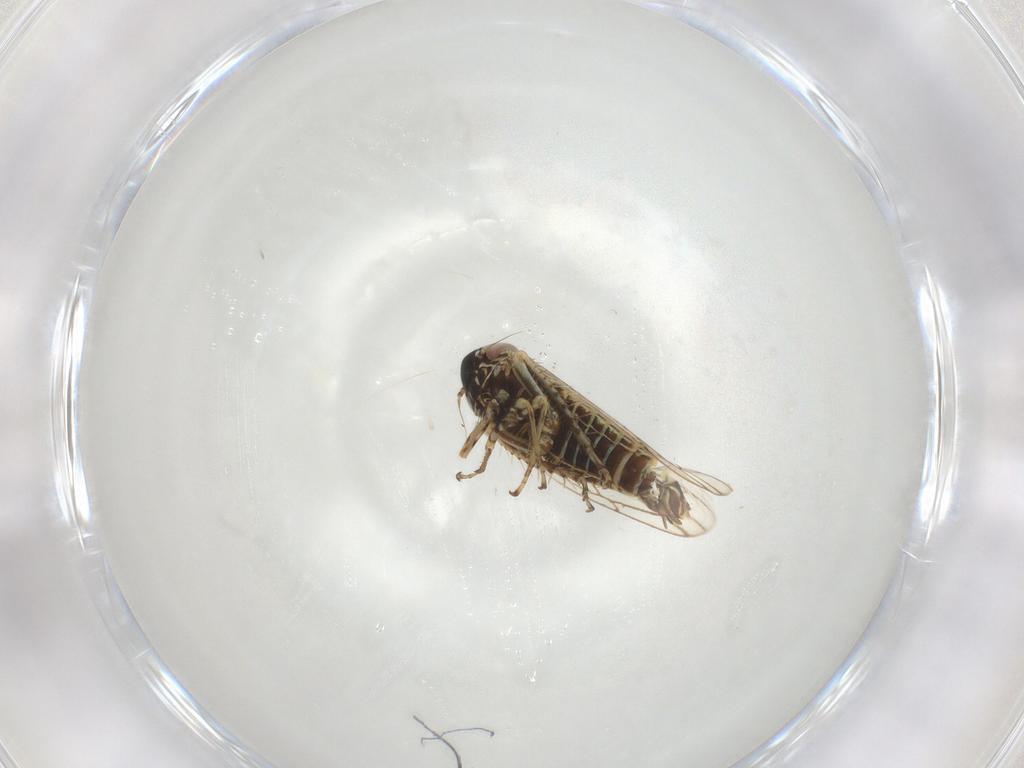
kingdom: Animalia
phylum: Arthropoda
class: Insecta
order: Hemiptera
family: Cicadellidae
